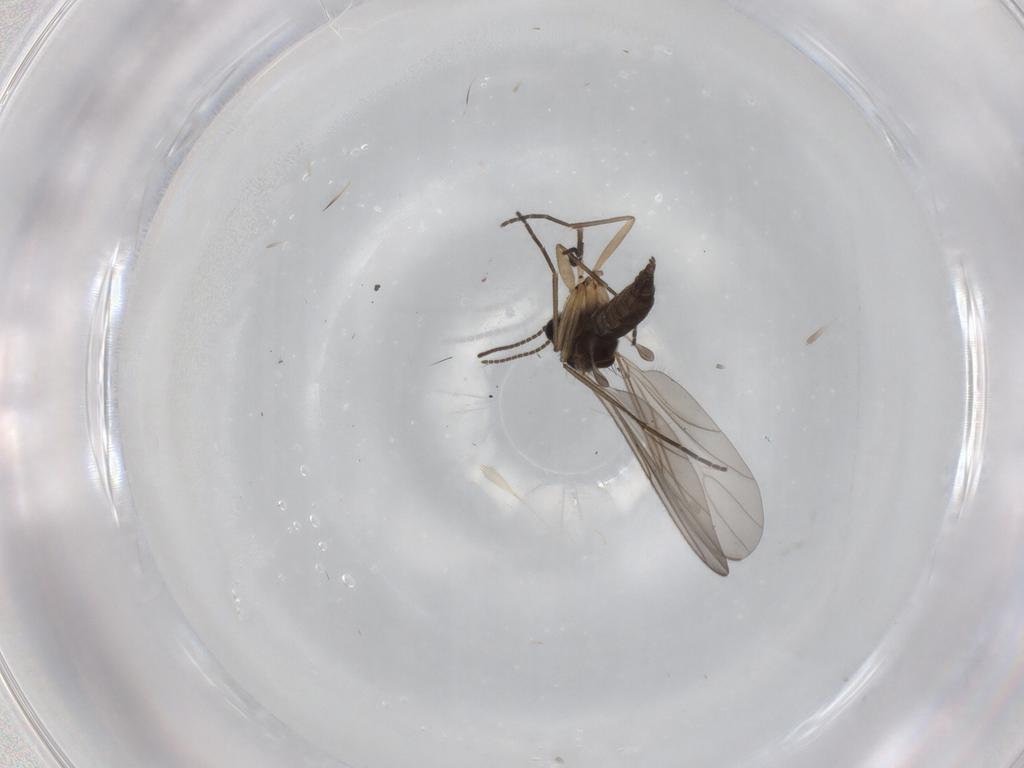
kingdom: Animalia
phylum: Arthropoda
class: Insecta
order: Diptera
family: Sciaridae
